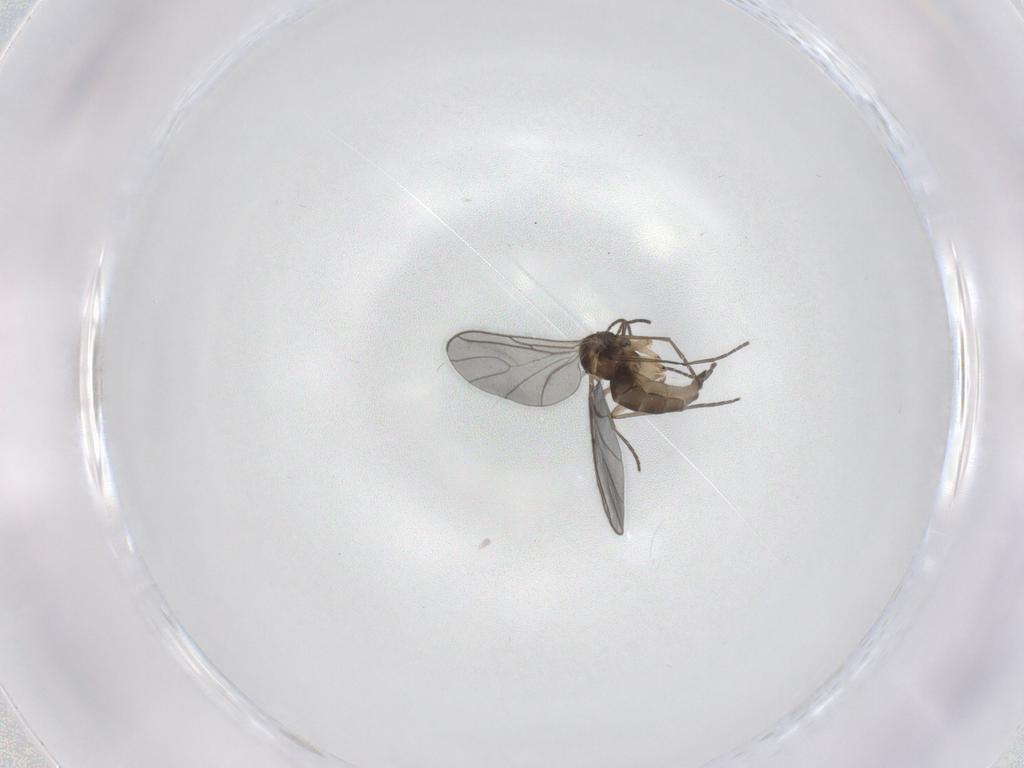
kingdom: Animalia
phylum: Arthropoda
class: Insecta
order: Diptera
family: Sciaridae
